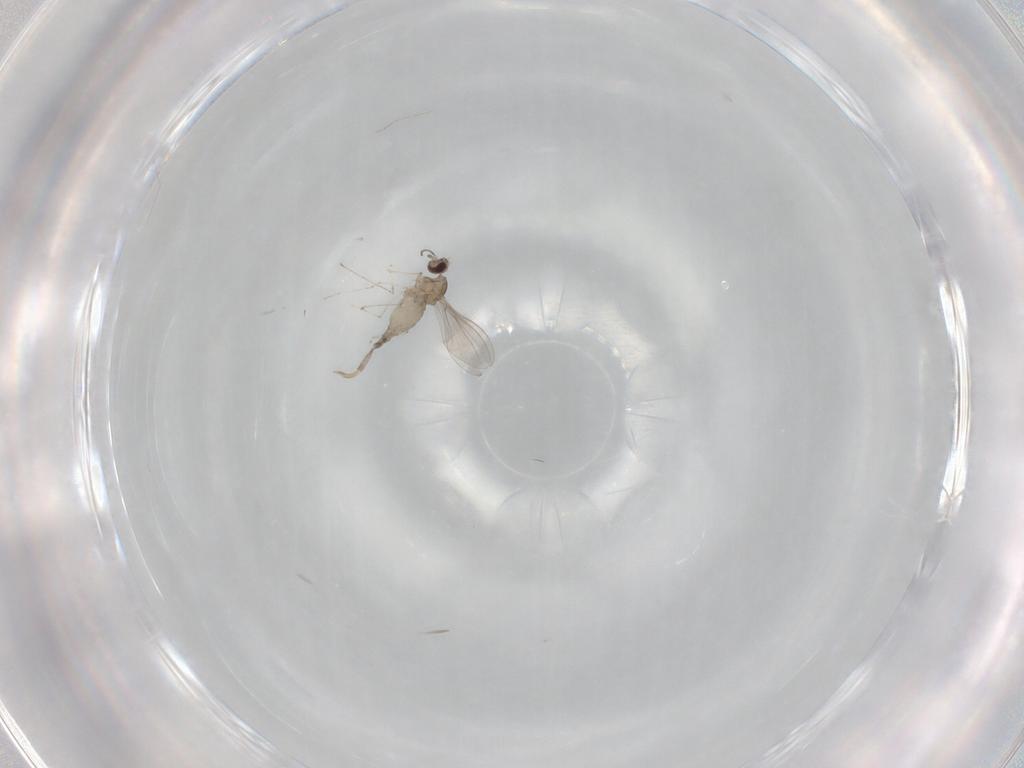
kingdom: Animalia
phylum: Arthropoda
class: Insecta
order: Diptera
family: Cecidomyiidae
